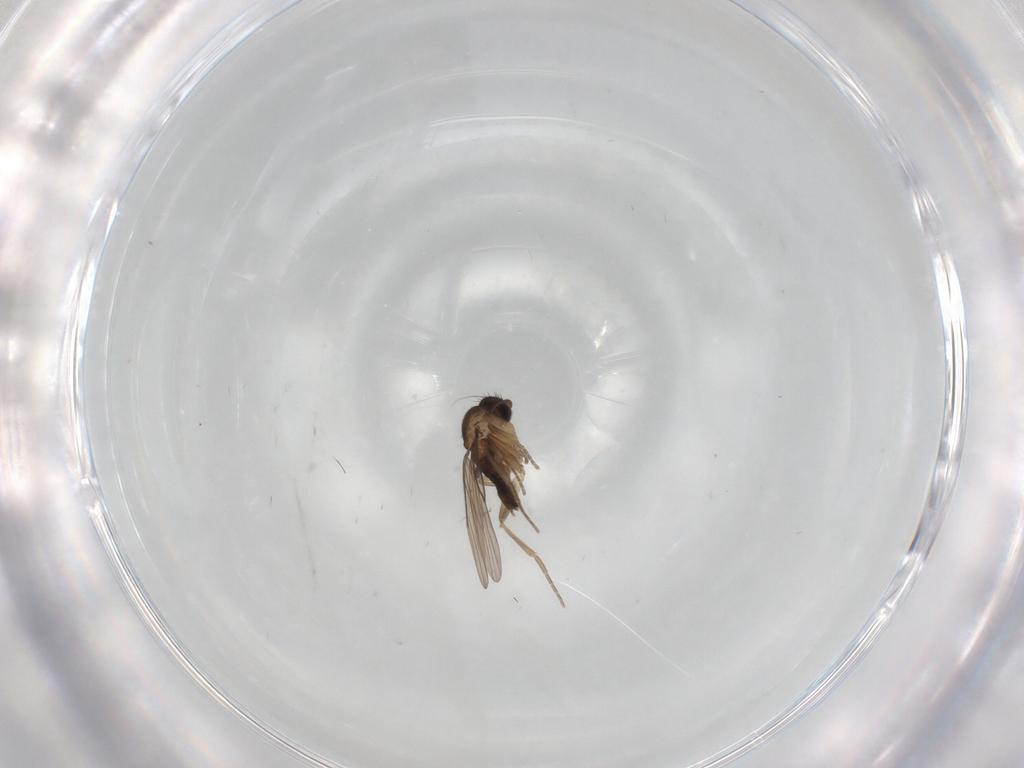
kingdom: Animalia
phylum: Arthropoda
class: Insecta
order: Diptera
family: Phoridae
